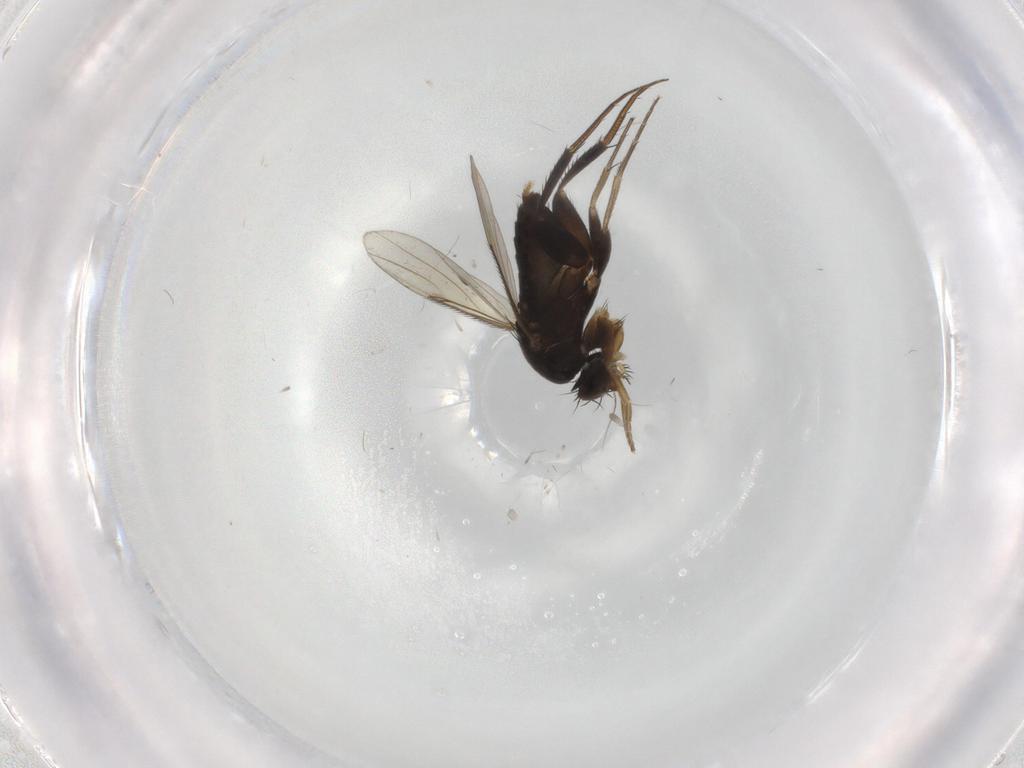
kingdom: Animalia
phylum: Arthropoda
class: Insecta
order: Diptera
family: Phoridae
